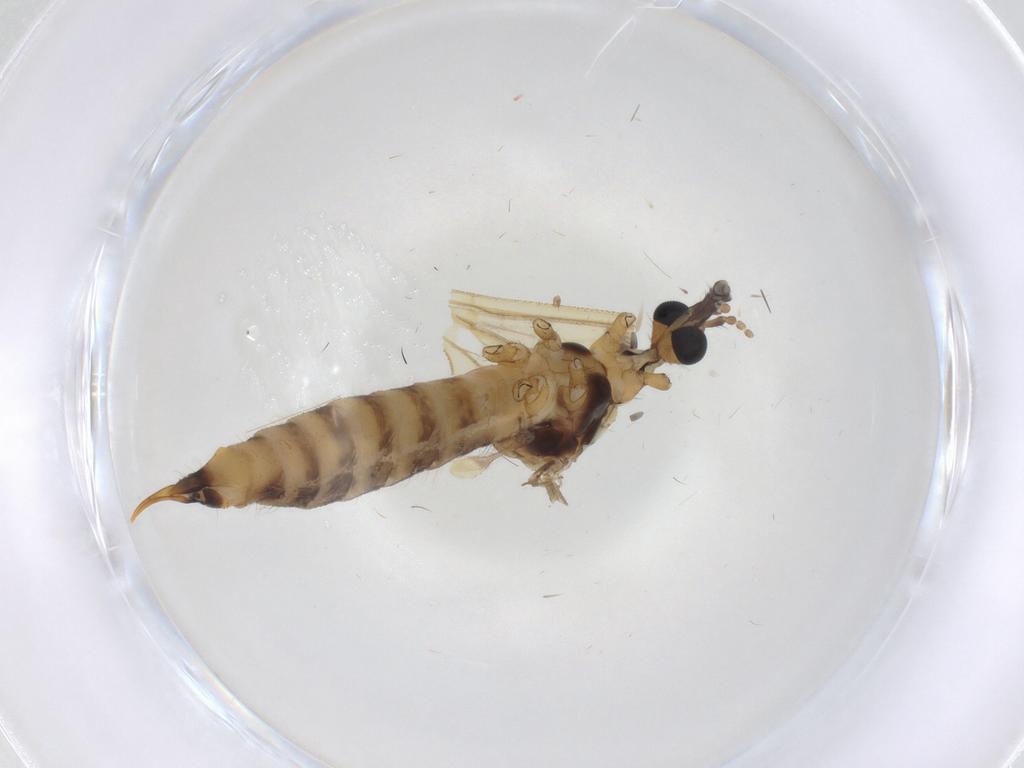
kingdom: Animalia
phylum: Arthropoda
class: Insecta
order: Diptera
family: Limoniidae
